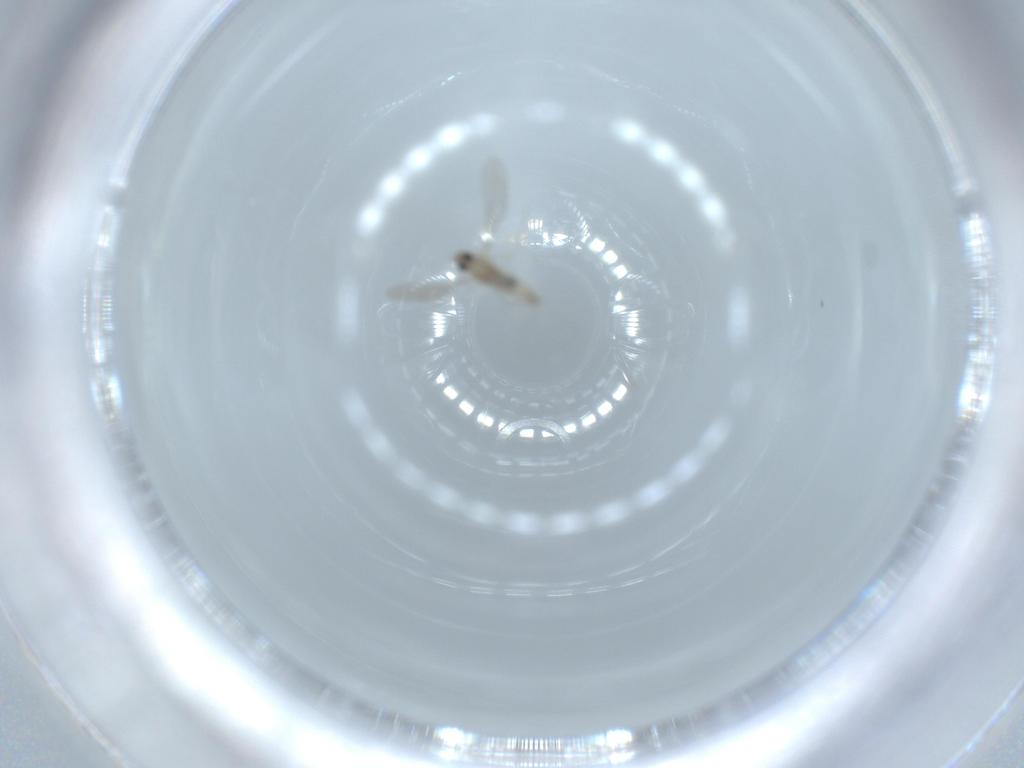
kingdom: Animalia
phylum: Arthropoda
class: Insecta
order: Diptera
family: Cecidomyiidae
